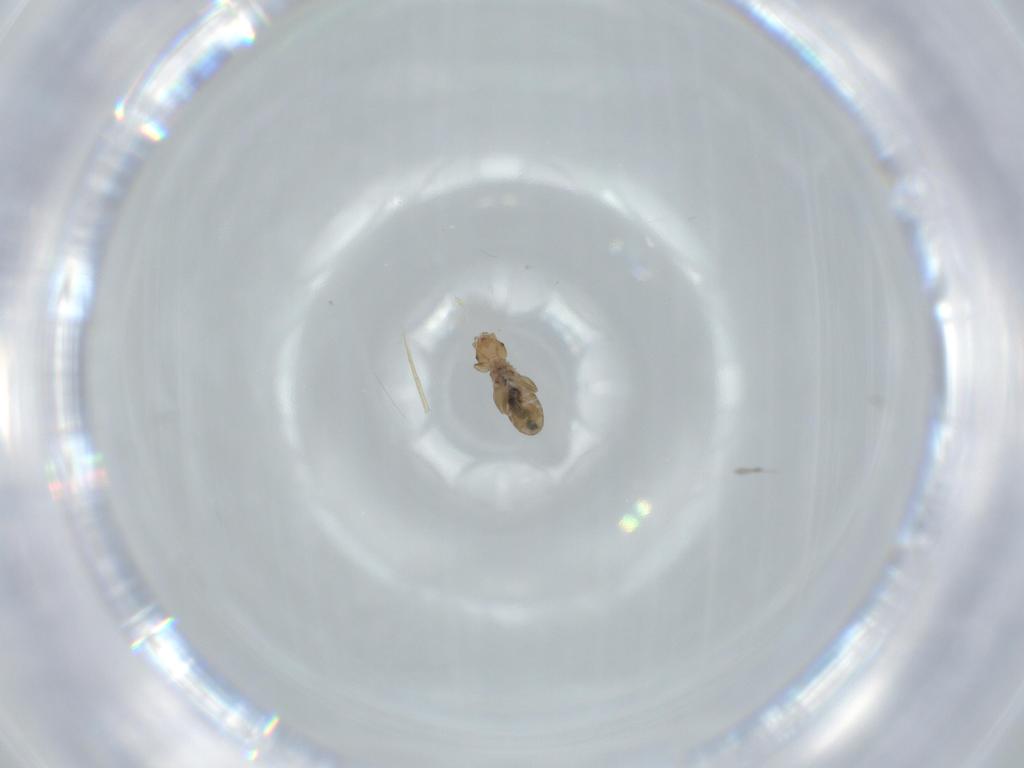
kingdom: Animalia
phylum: Arthropoda
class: Insecta
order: Psocodea
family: Liposcelididae
